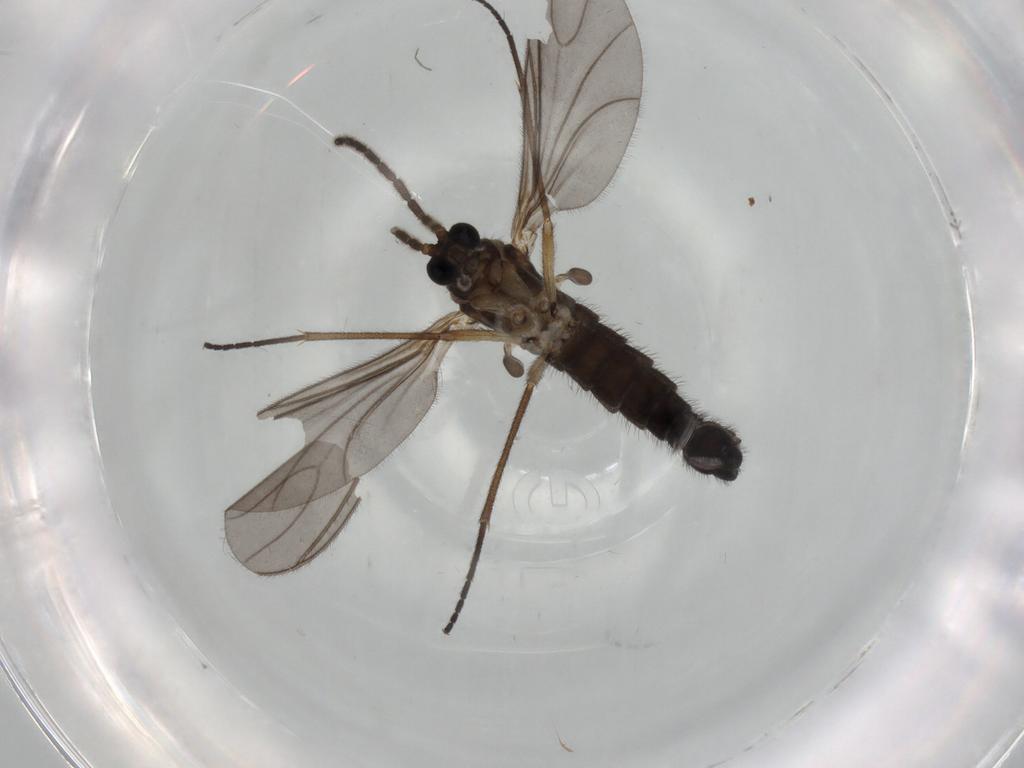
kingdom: Animalia
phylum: Arthropoda
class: Insecta
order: Diptera
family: Sciaridae
